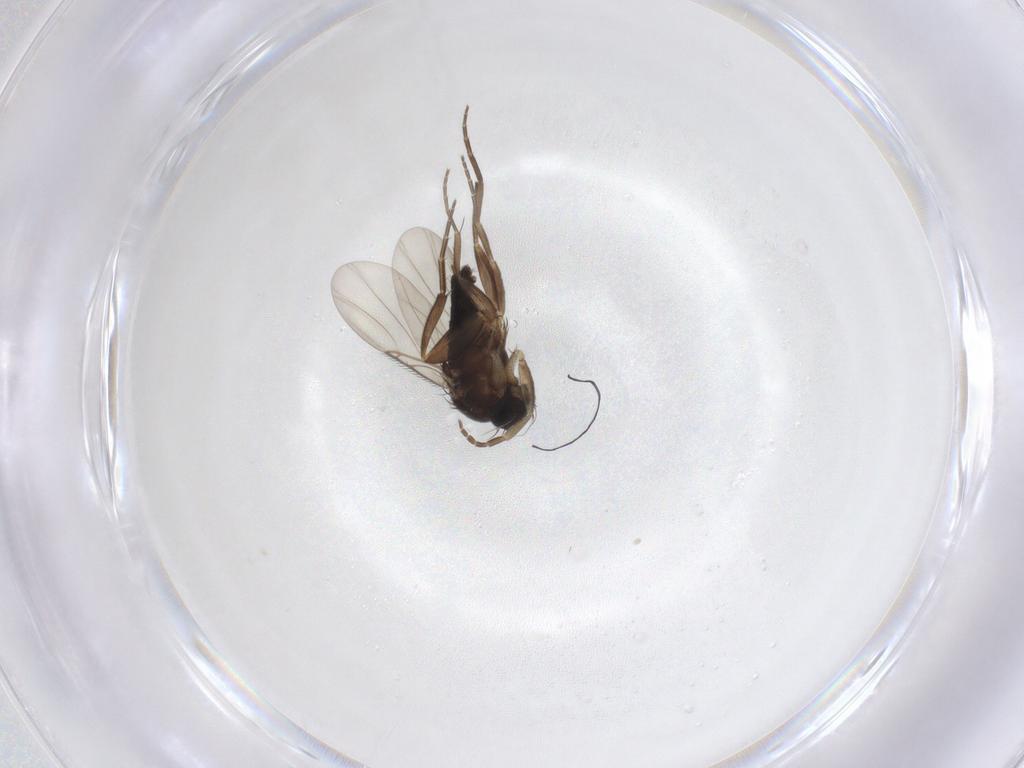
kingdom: Animalia
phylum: Arthropoda
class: Insecta
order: Diptera
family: Phoridae
